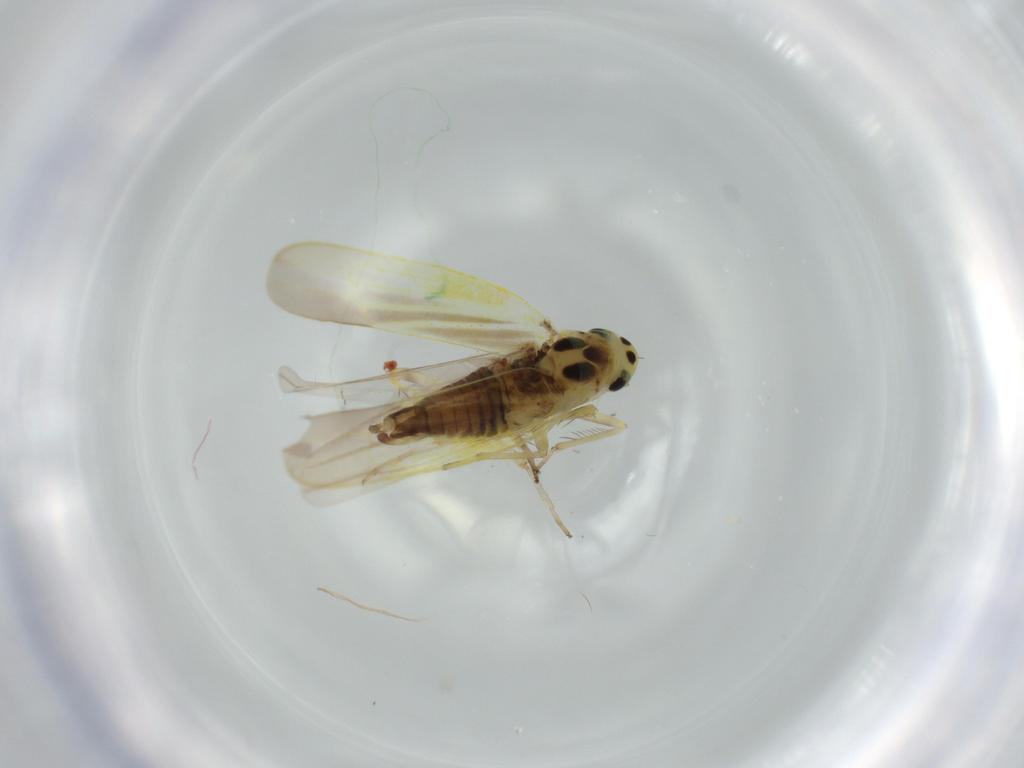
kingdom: Animalia
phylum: Arthropoda
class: Insecta
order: Hemiptera
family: Cicadellidae
